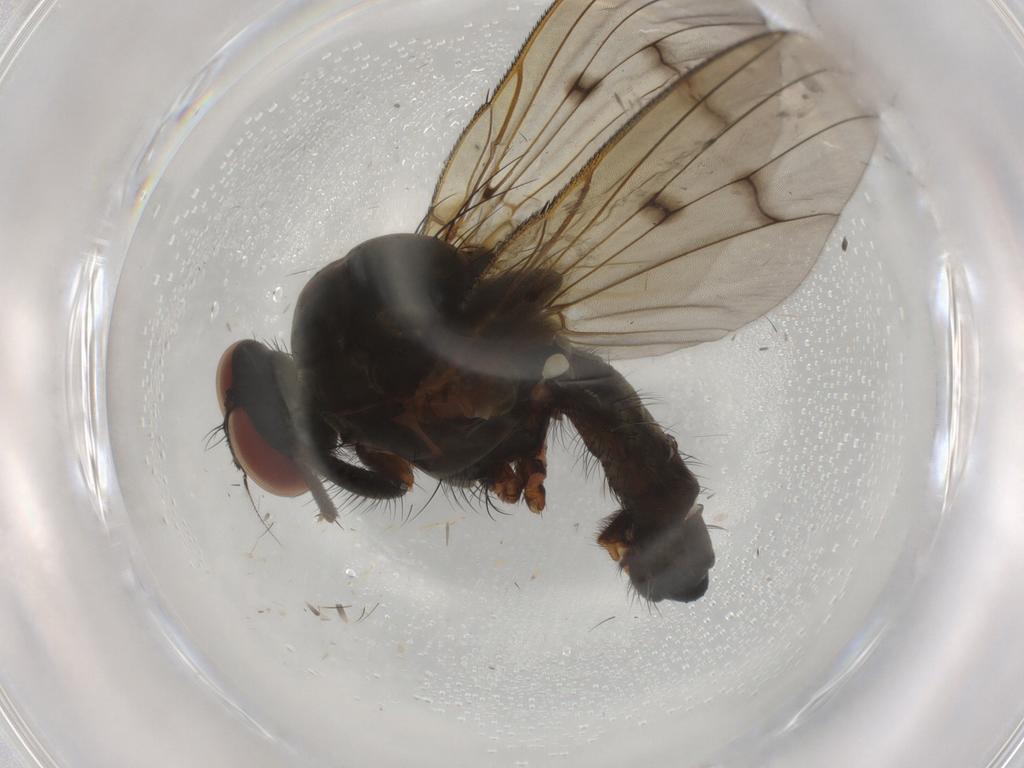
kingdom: Animalia
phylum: Arthropoda
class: Insecta
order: Diptera
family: Anthomyiidae
